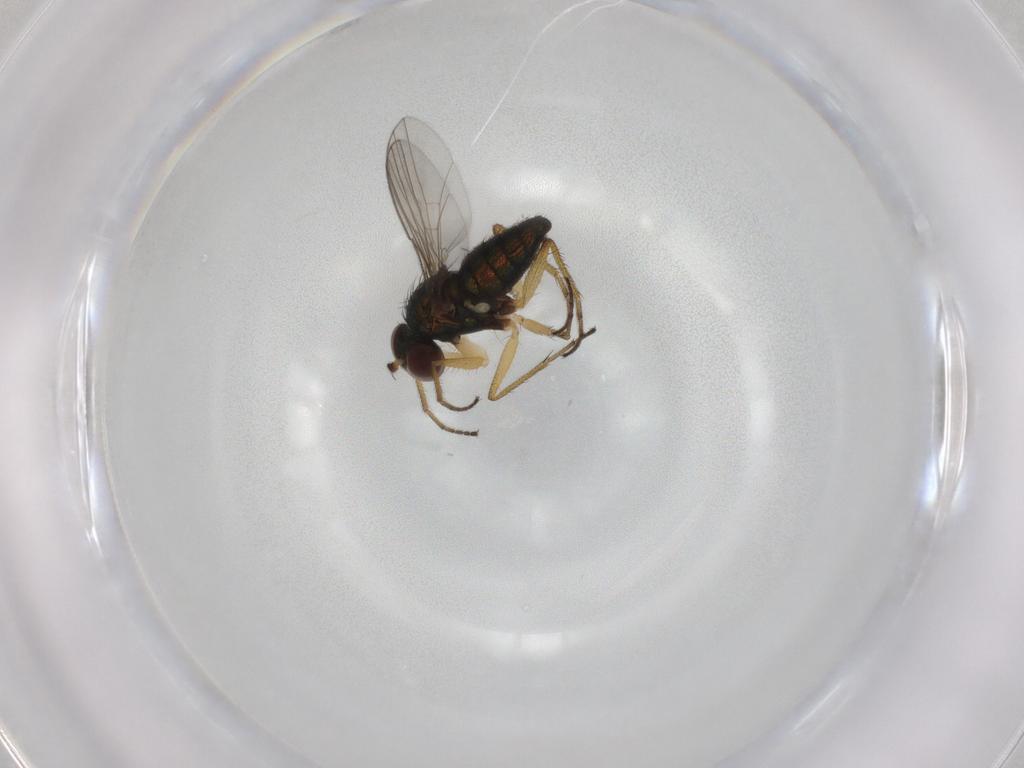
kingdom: Animalia
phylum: Arthropoda
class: Insecta
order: Diptera
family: Ceratopogonidae
